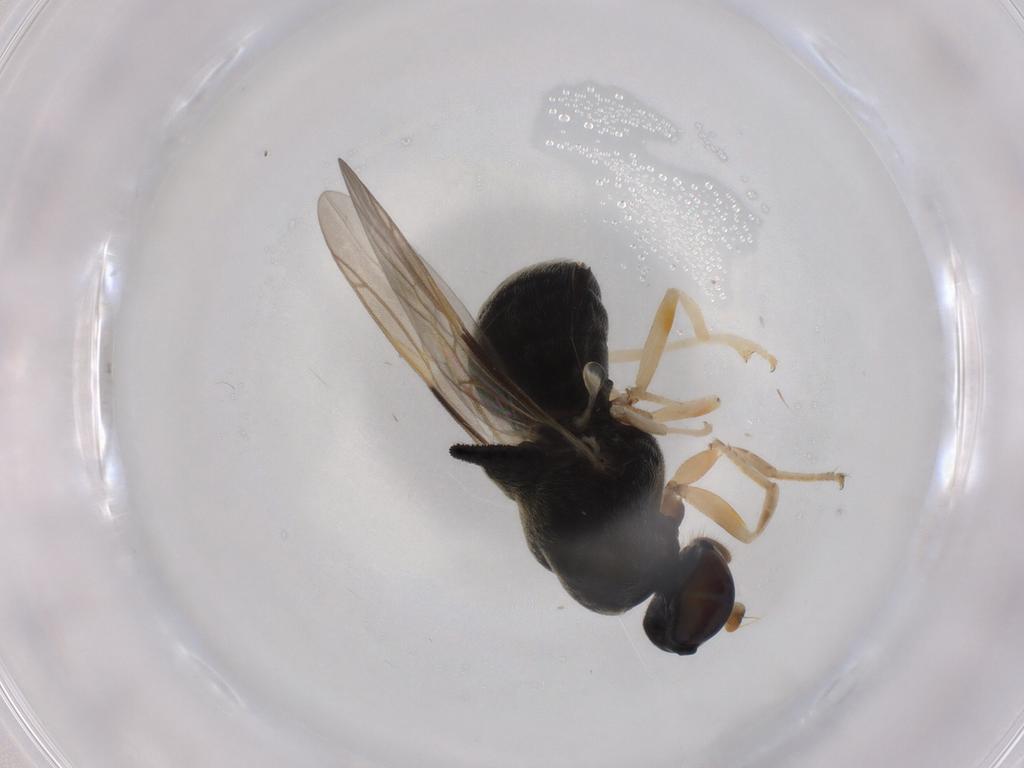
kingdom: Animalia
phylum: Arthropoda
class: Insecta
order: Diptera
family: Stratiomyidae
